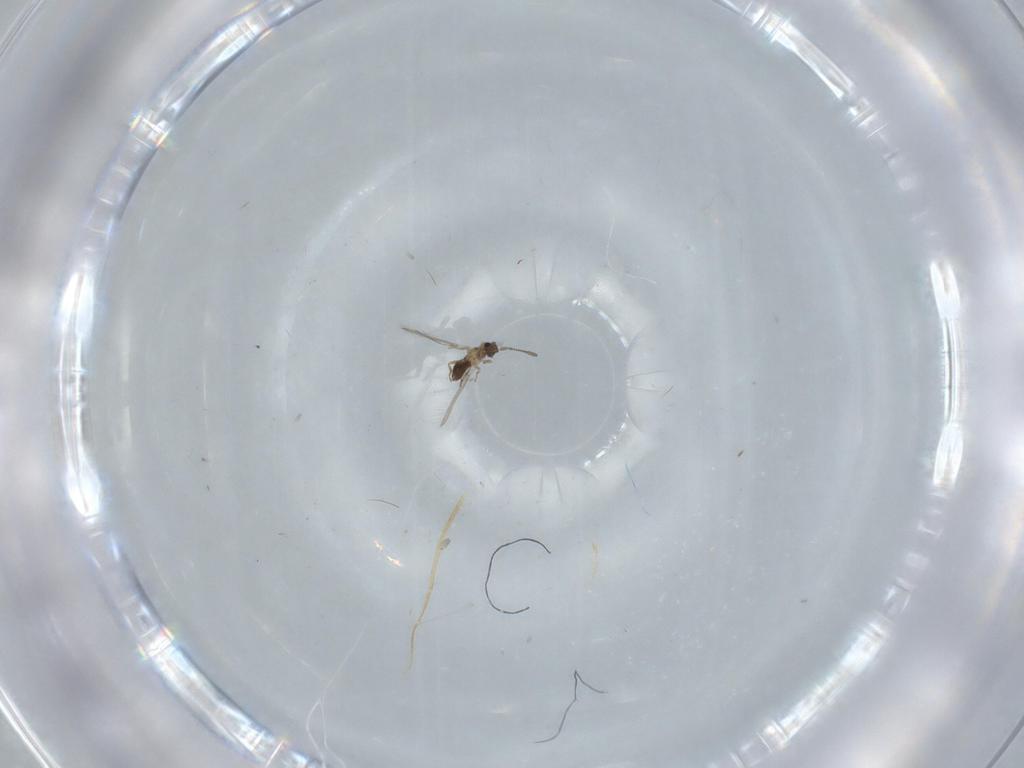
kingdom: Animalia
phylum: Arthropoda
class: Insecta
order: Hymenoptera
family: Mymaridae
